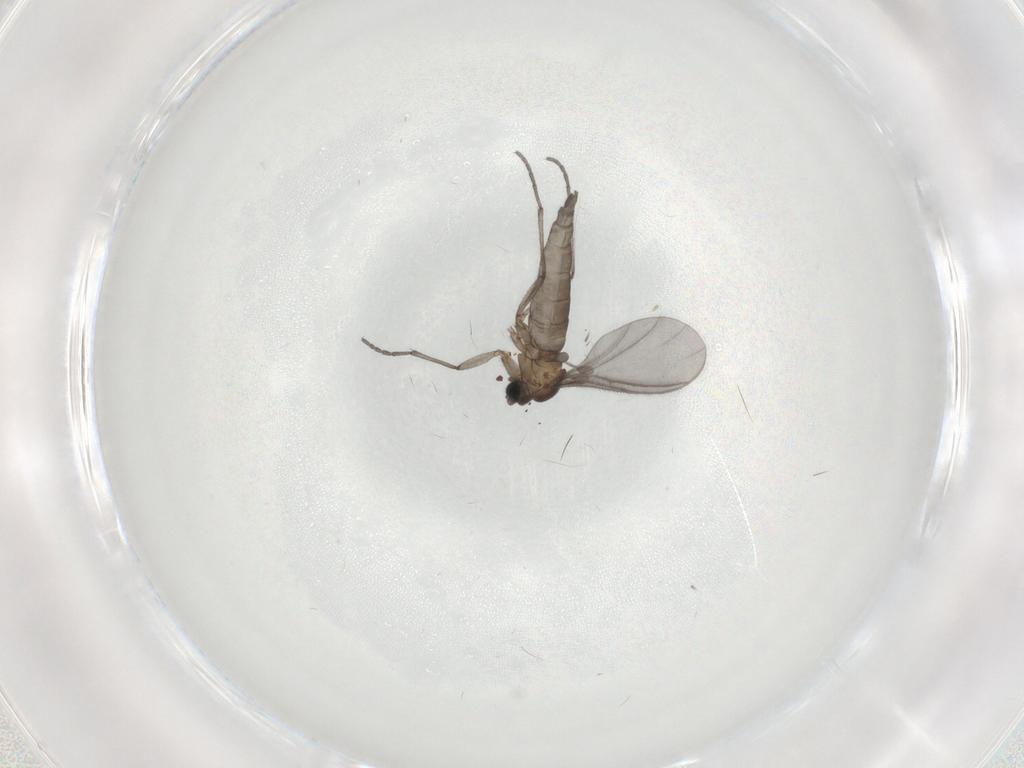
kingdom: Animalia
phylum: Arthropoda
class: Insecta
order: Diptera
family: Sciaridae
